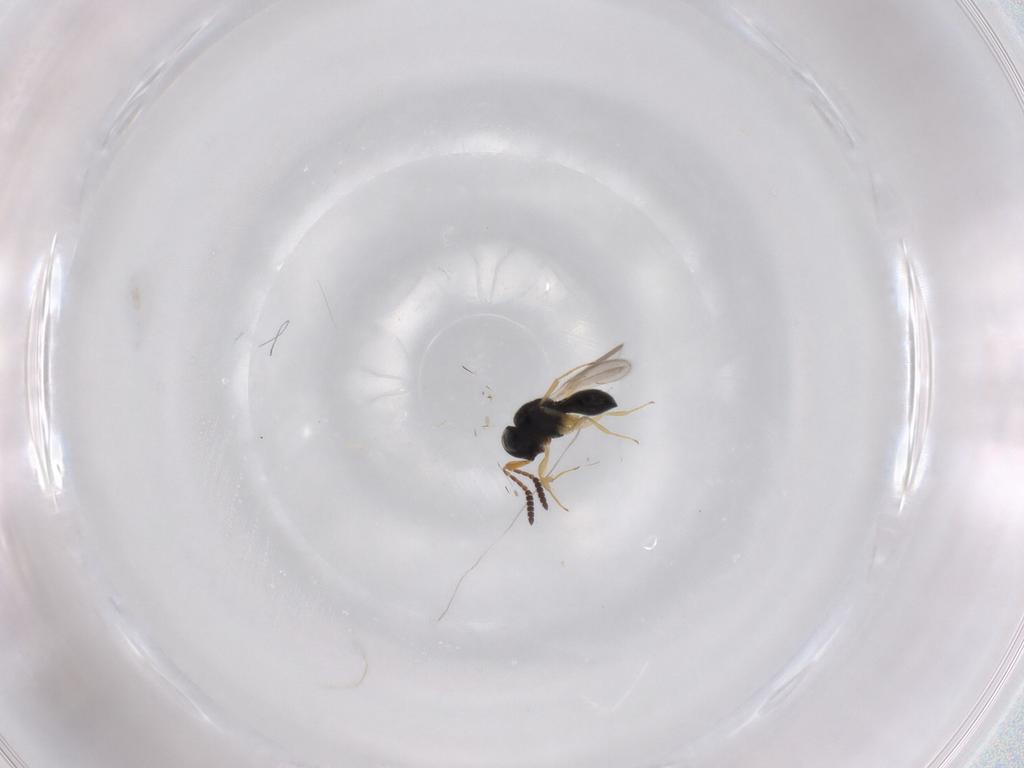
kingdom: Animalia
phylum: Arthropoda
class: Insecta
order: Hymenoptera
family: Scelionidae
